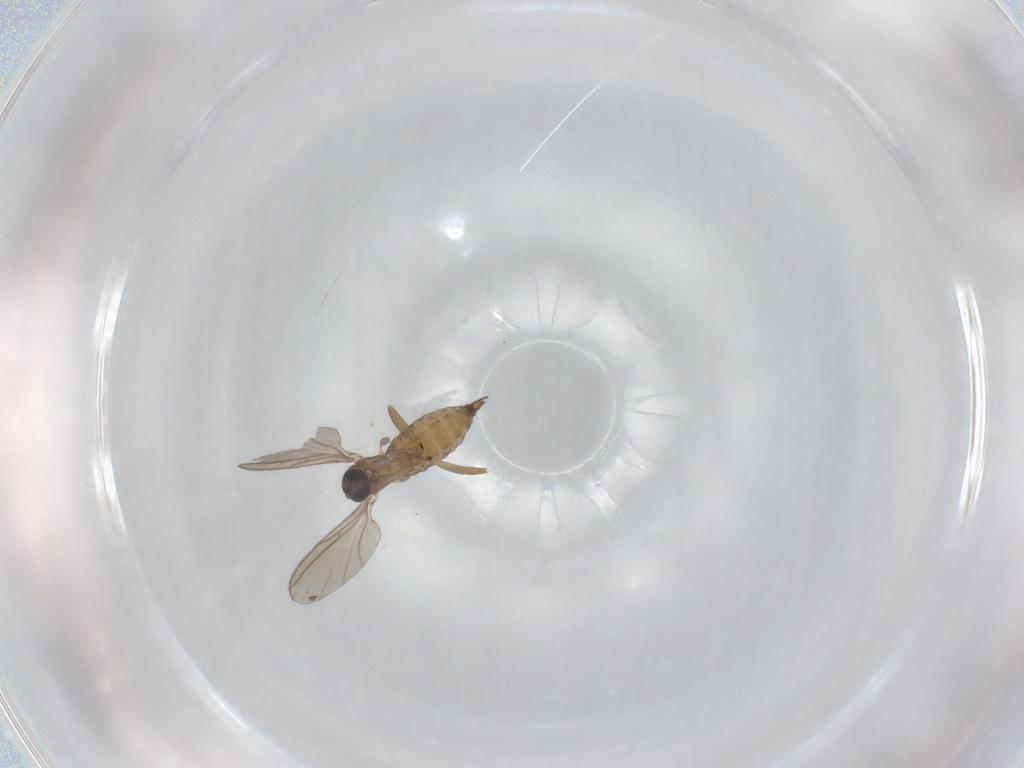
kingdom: Animalia
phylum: Arthropoda
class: Insecta
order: Diptera
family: Sciaridae
